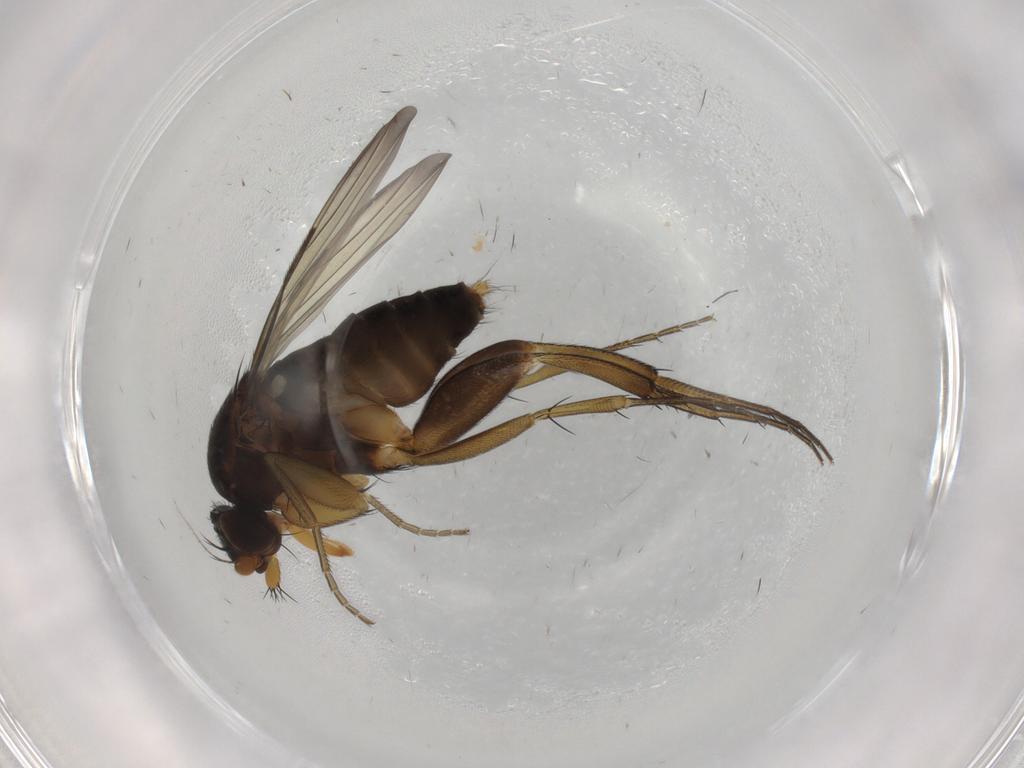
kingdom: Animalia
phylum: Arthropoda
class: Insecta
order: Diptera
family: Phoridae
